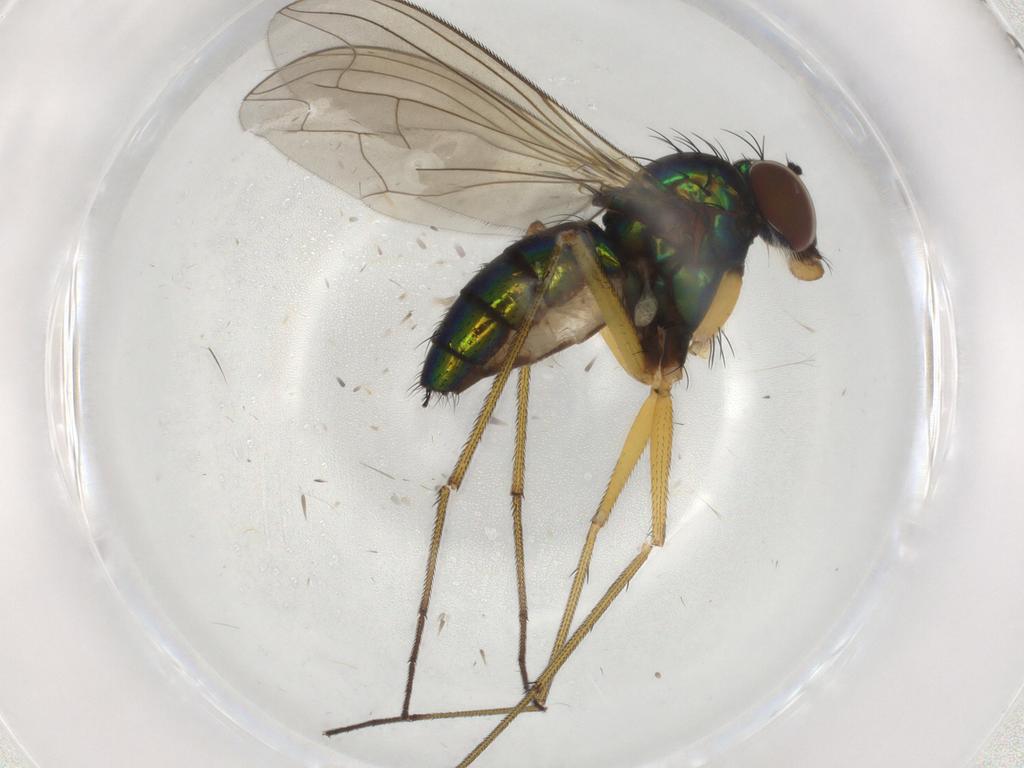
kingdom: Animalia
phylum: Arthropoda
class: Insecta
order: Diptera
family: Dolichopodidae
